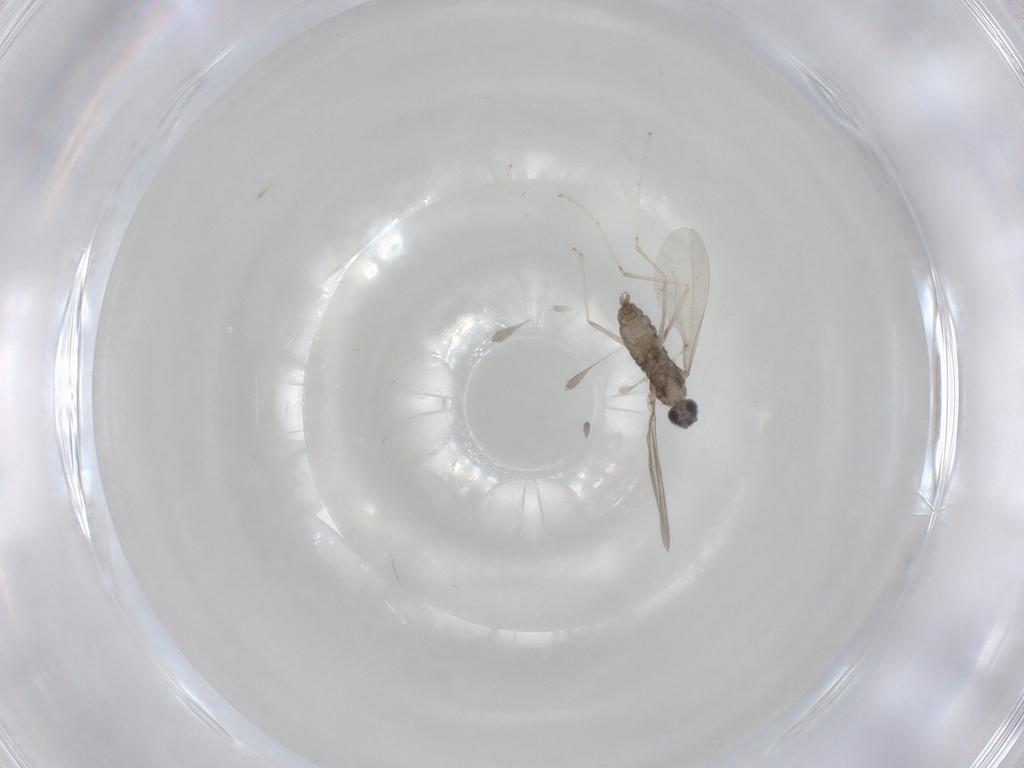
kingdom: Animalia
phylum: Arthropoda
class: Insecta
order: Diptera
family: Cecidomyiidae
